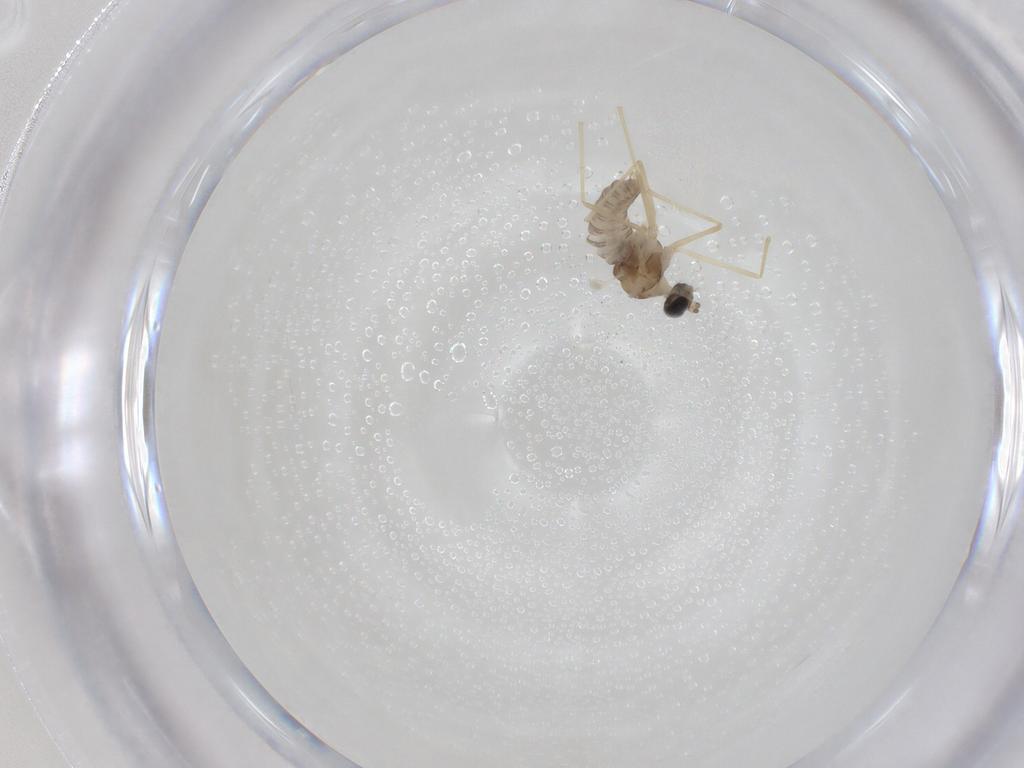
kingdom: Animalia
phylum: Arthropoda
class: Insecta
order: Diptera
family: Cecidomyiidae
